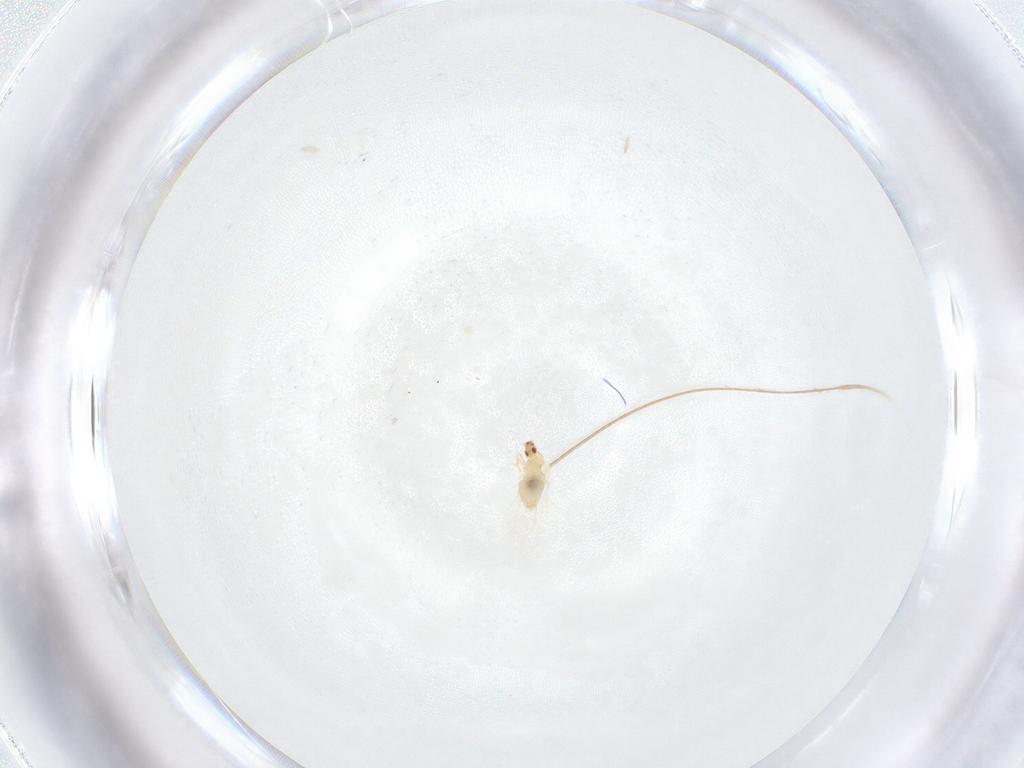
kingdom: Animalia
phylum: Arthropoda
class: Insecta
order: Diptera
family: Cecidomyiidae
